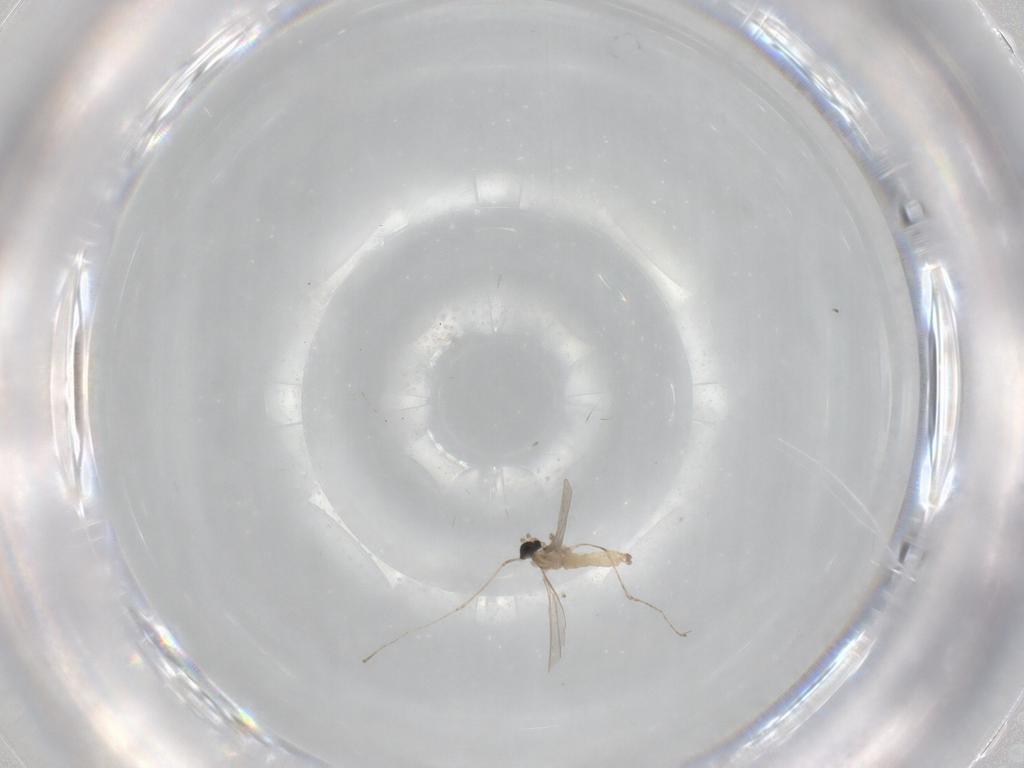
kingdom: Animalia
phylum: Arthropoda
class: Insecta
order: Diptera
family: Cecidomyiidae
